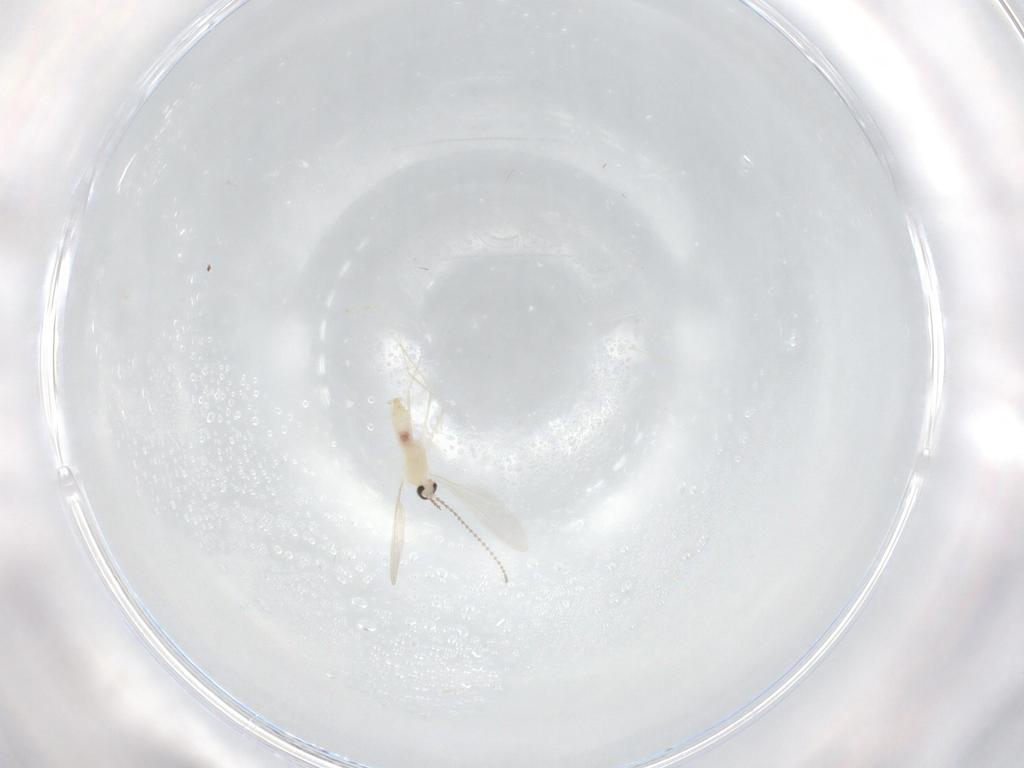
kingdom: Animalia
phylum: Arthropoda
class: Insecta
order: Diptera
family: Cecidomyiidae
